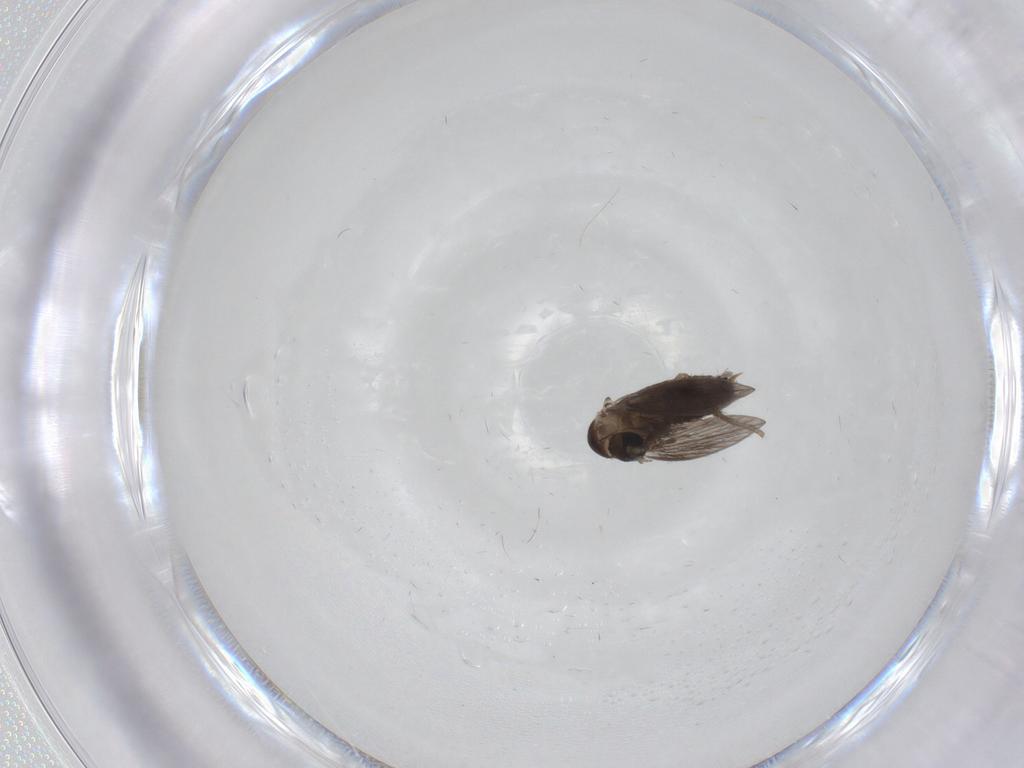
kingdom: Animalia
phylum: Arthropoda
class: Insecta
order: Diptera
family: Psychodidae
